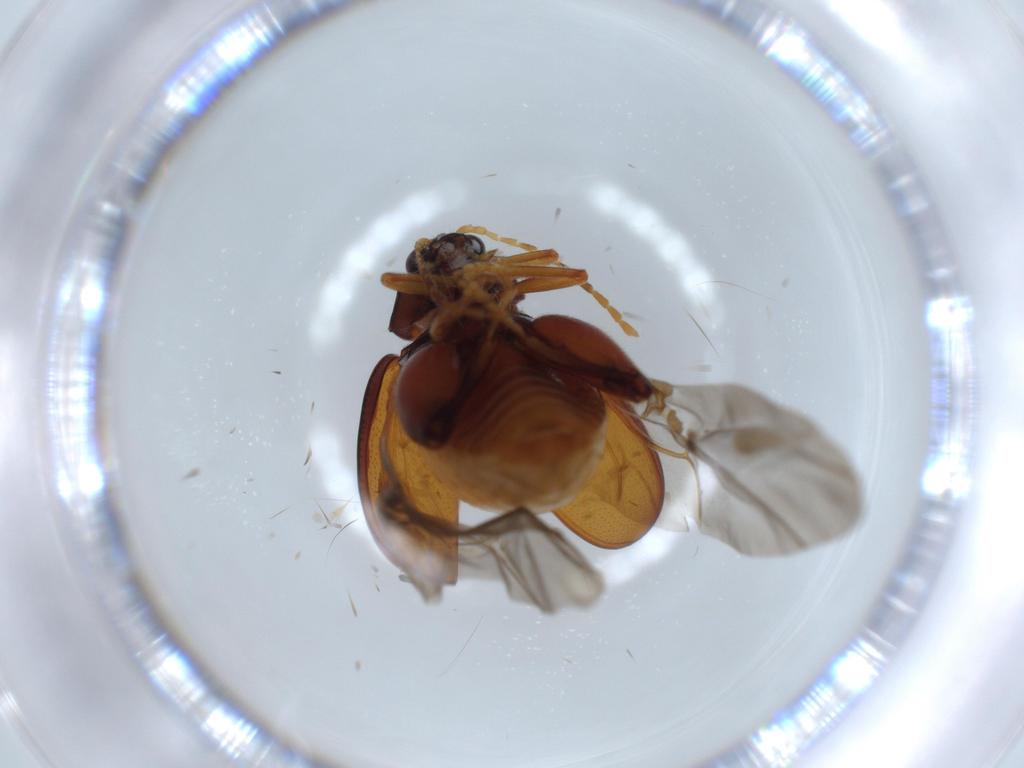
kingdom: Animalia
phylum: Arthropoda
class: Insecta
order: Coleoptera
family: Chrysomelidae
